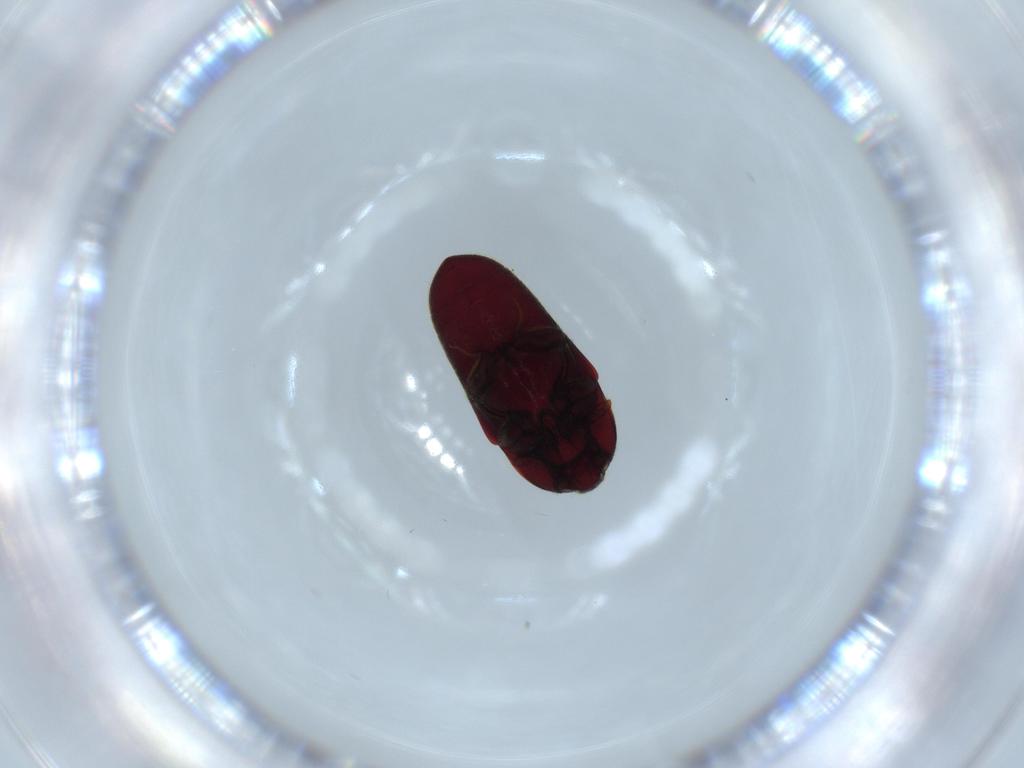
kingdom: Animalia
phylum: Arthropoda
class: Insecta
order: Coleoptera
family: Throscidae
